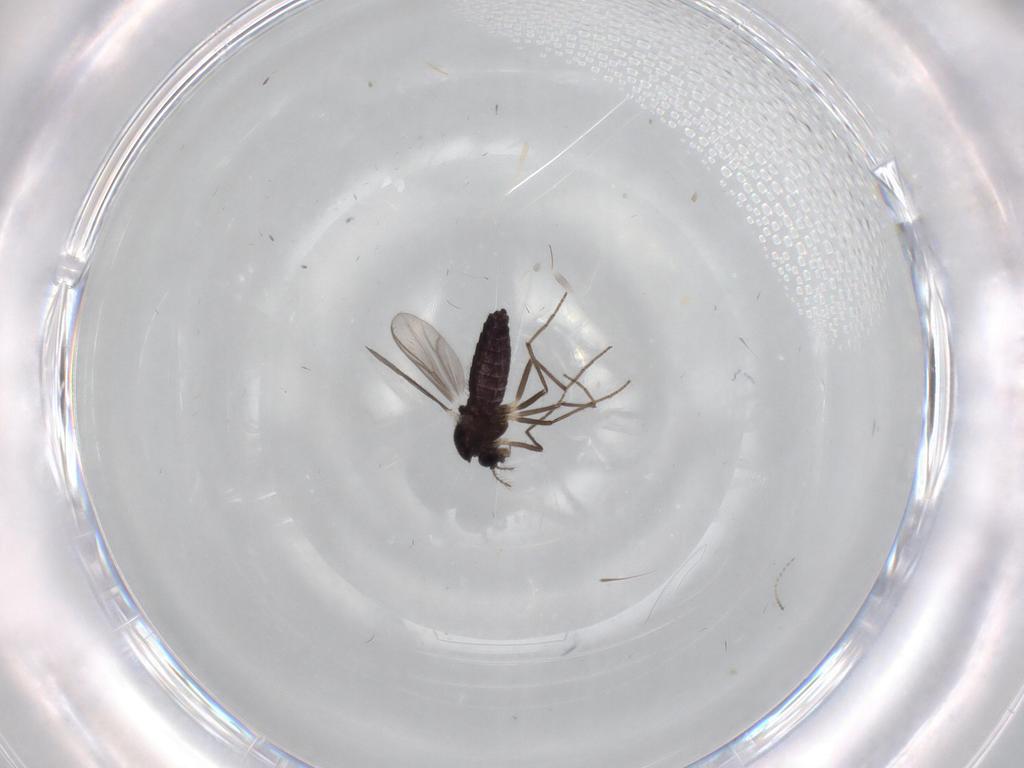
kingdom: Animalia
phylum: Arthropoda
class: Insecta
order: Diptera
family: Chironomidae
